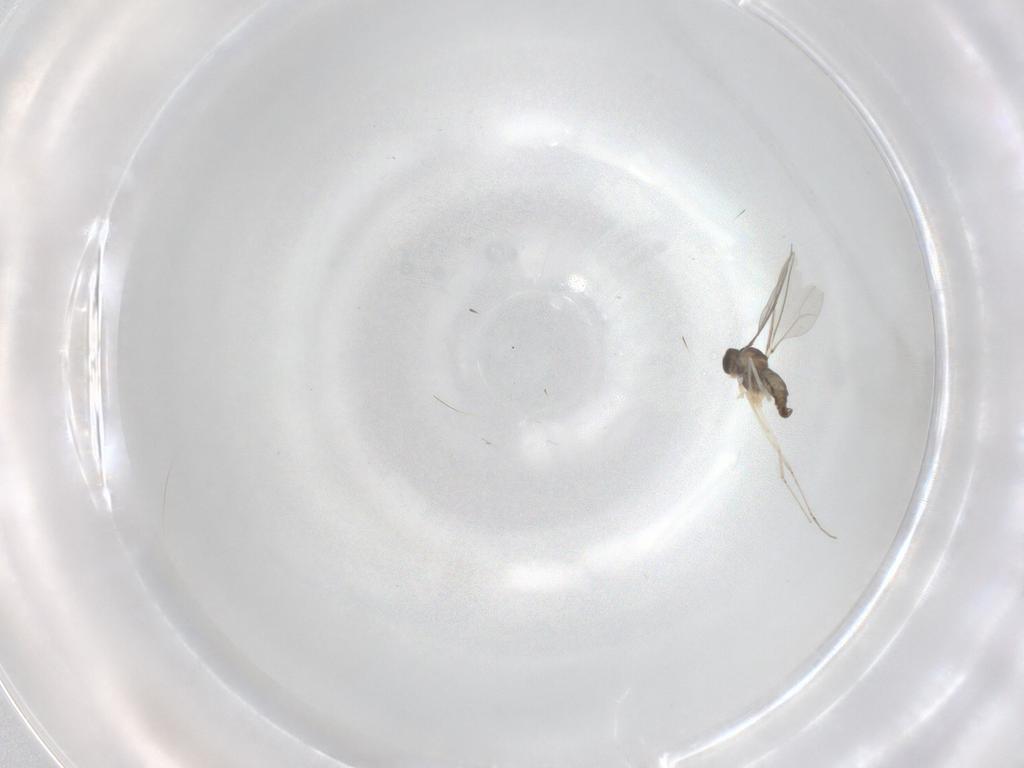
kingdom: Animalia
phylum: Arthropoda
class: Insecta
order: Diptera
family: Cecidomyiidae
